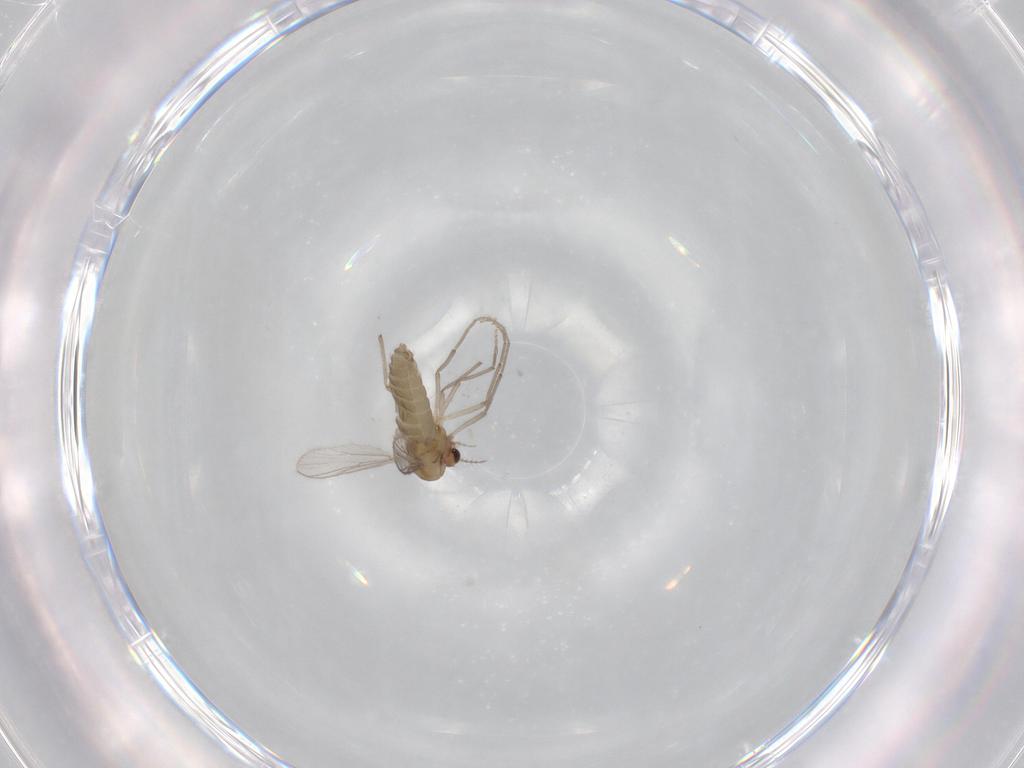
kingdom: Animalia
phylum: Arthropoda
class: Insecta
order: Diptera
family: Chironomidae
